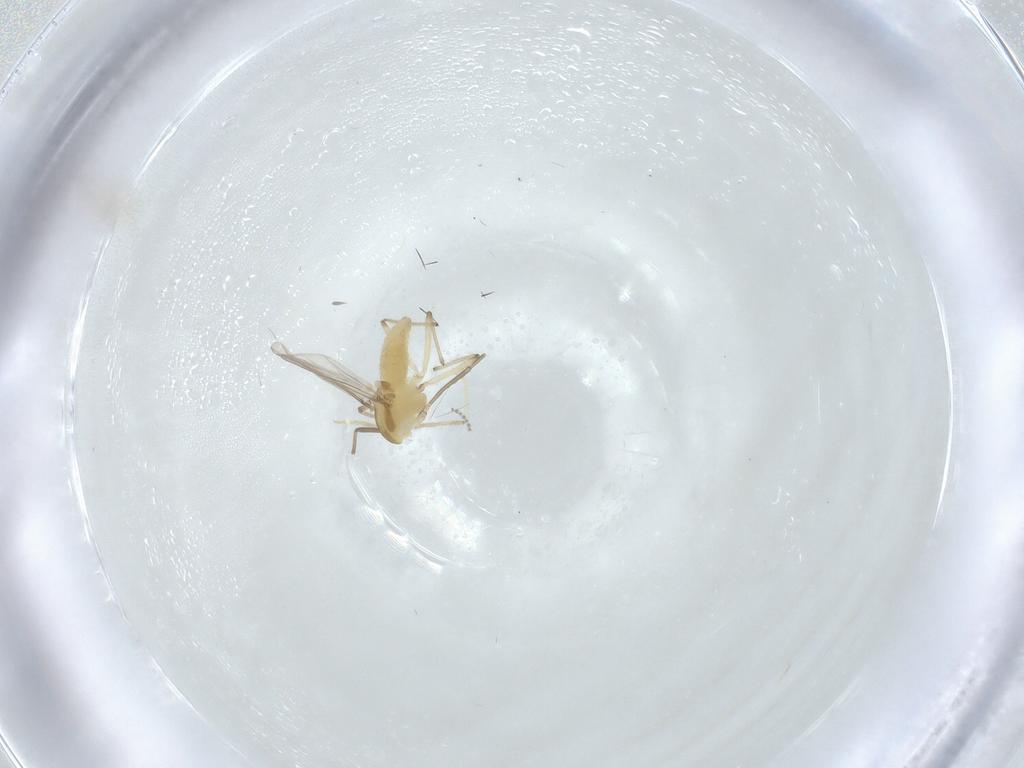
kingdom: Animalia
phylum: Arthropoda
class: Insecta
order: Diptera
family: Chironomidae
